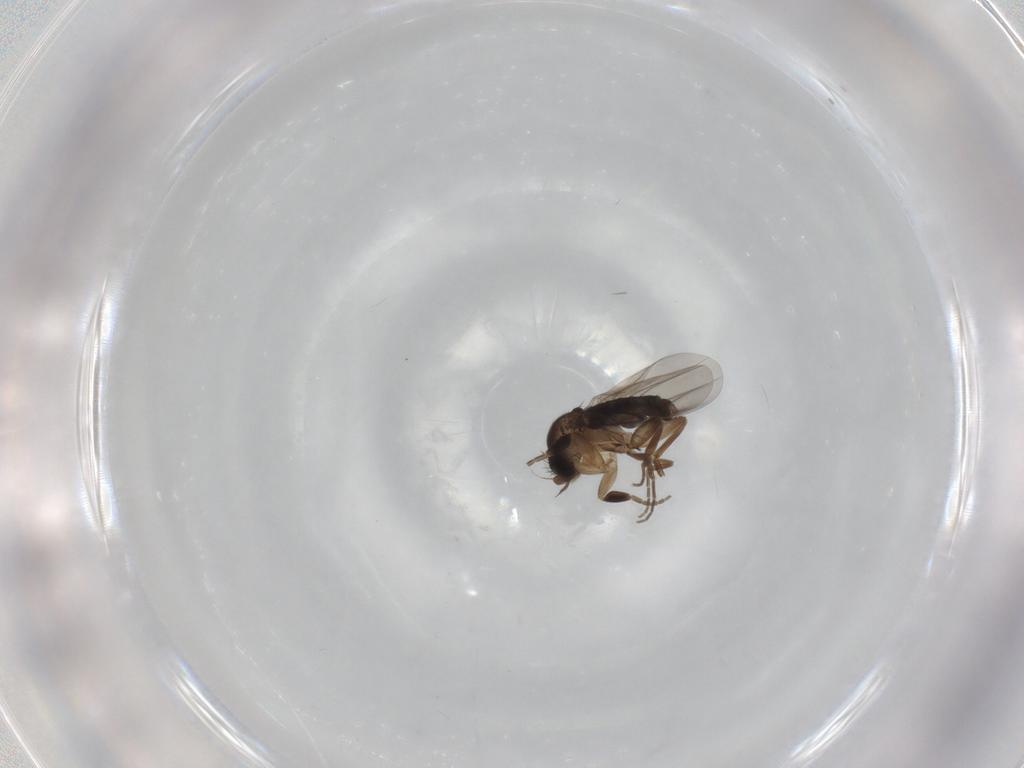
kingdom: Animalia
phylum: Arthropoda
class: Insecta
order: Diptera
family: Phoridae
